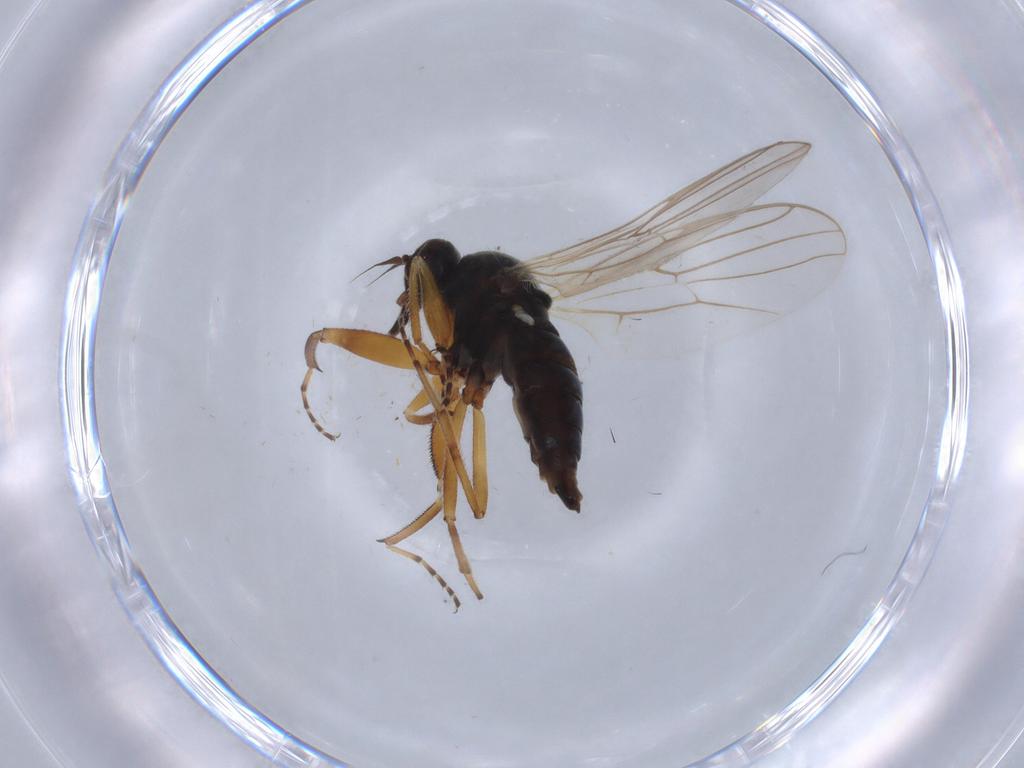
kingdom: Animalia
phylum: Arthropoda
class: Insecta
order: Diptera
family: Hybotidae
